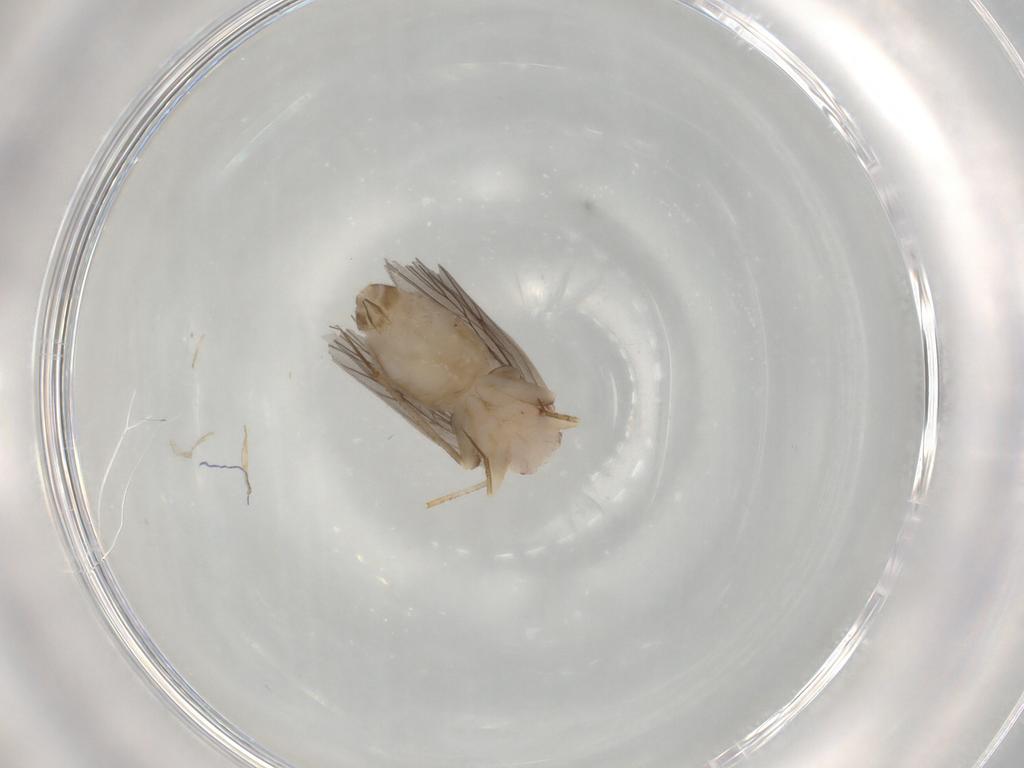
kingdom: Animalia
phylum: Arthropoda
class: Insecta
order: Psocodea
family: Lepidopsocidae
